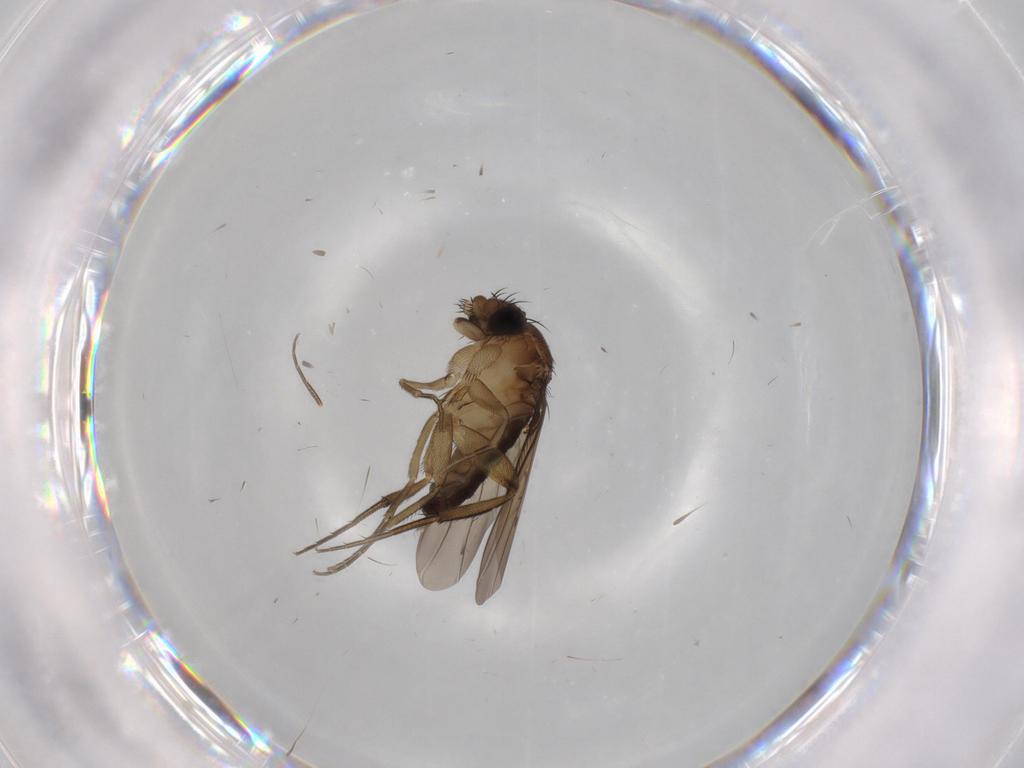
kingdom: Animalia
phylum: Arthropoda
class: Insecta
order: Diptera
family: Phoridae
